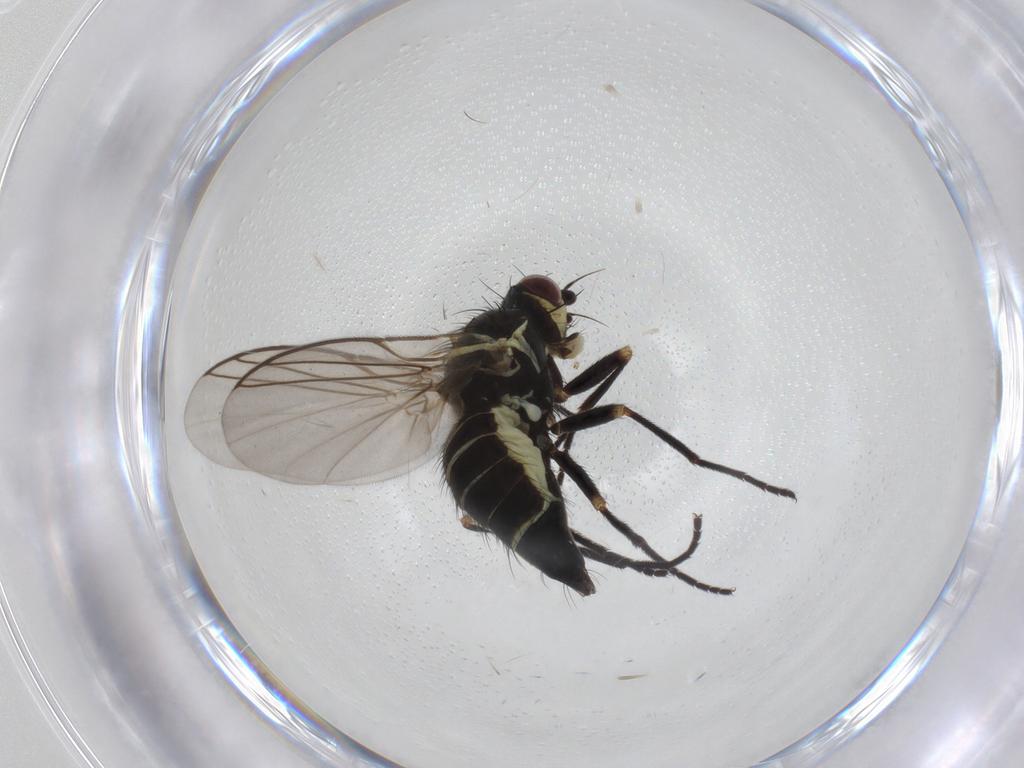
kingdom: Animalia
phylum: Arthropoda
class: Insecta
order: Diptera
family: Agromyzidae
